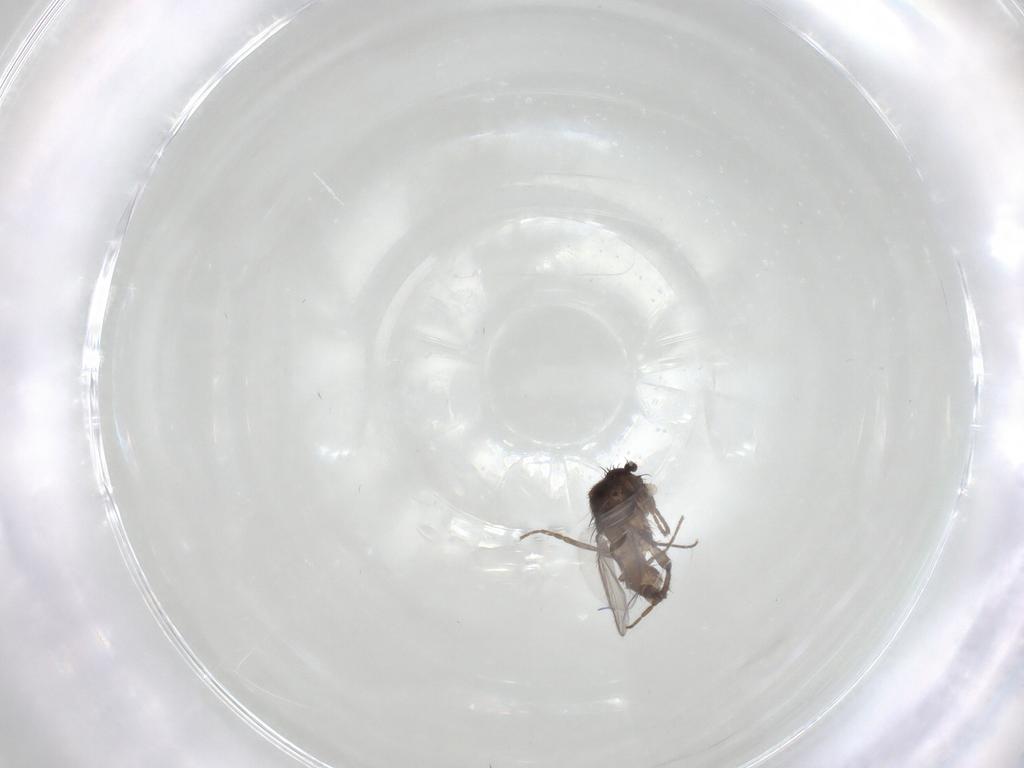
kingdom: Animalia
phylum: Arthropoda
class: Insecta
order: Diptera
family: Sphaeroceridae
